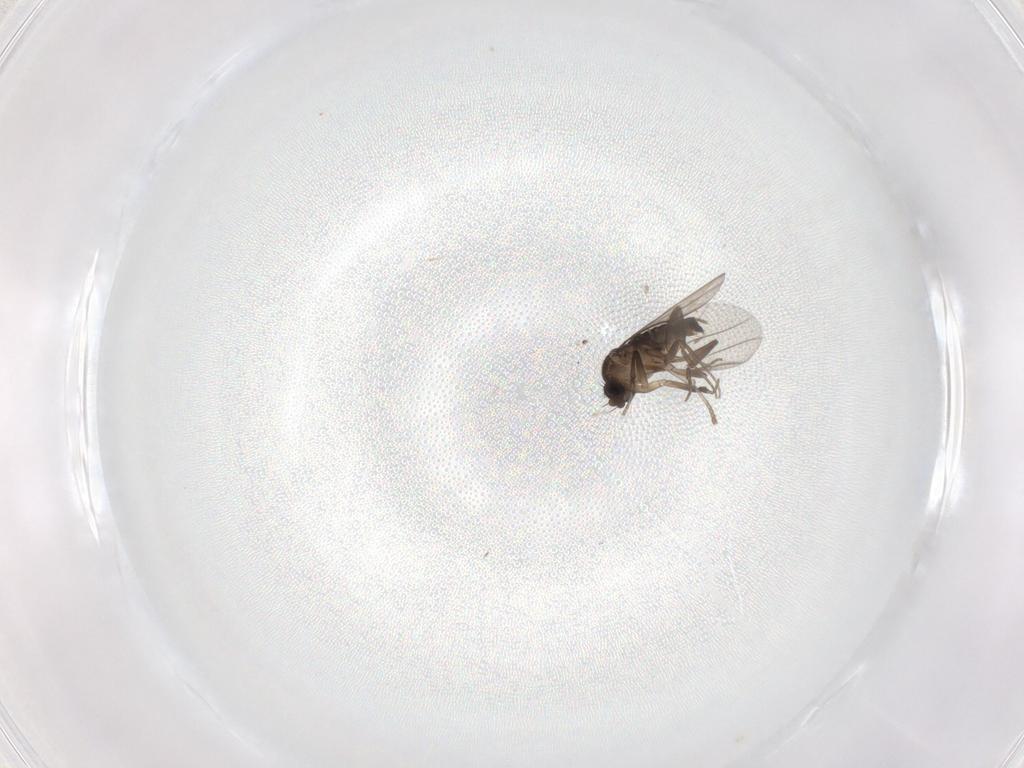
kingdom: Animalia
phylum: Arthropoda
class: Insecta
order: Diptera
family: Phoridae
